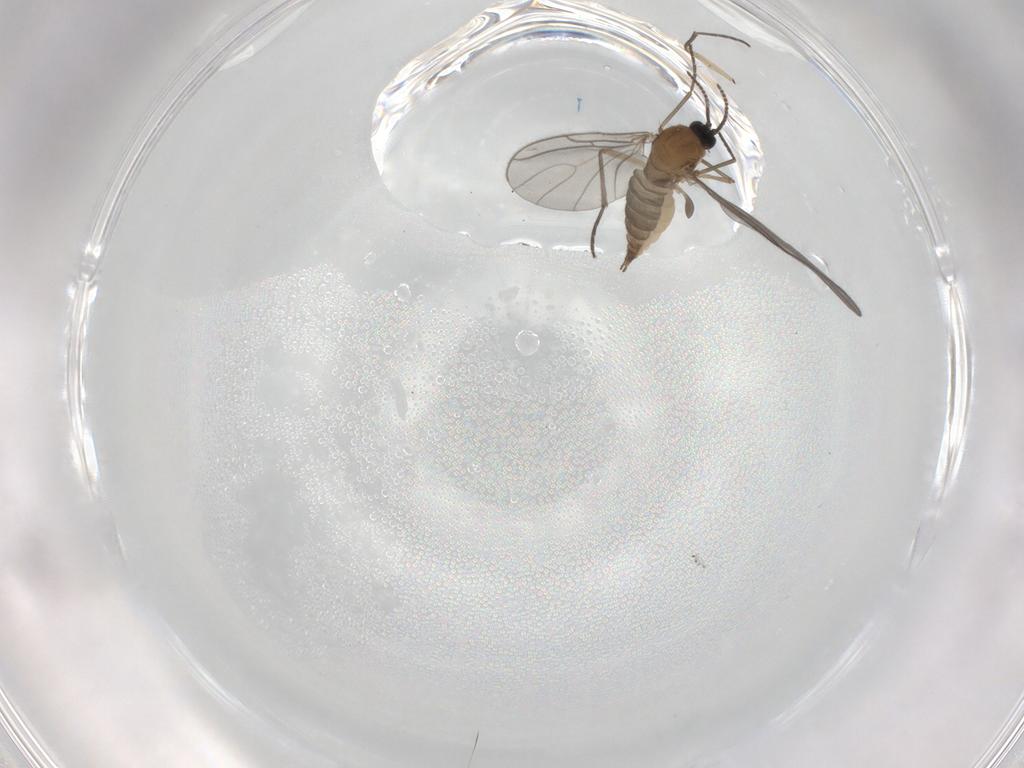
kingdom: Animalia
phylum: Arthropoda
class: Insecta
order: Diptera
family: Sciaridae
